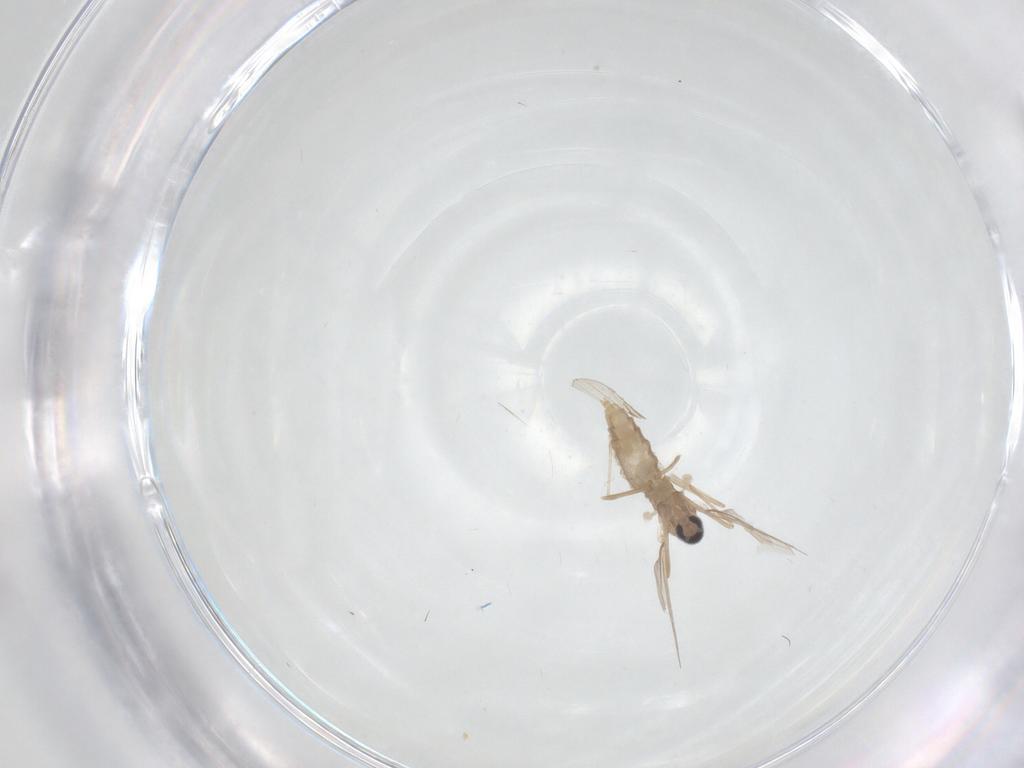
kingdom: Animalia
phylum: Arthropoda
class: Insecta
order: Diptera
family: Cecidomyiidae
